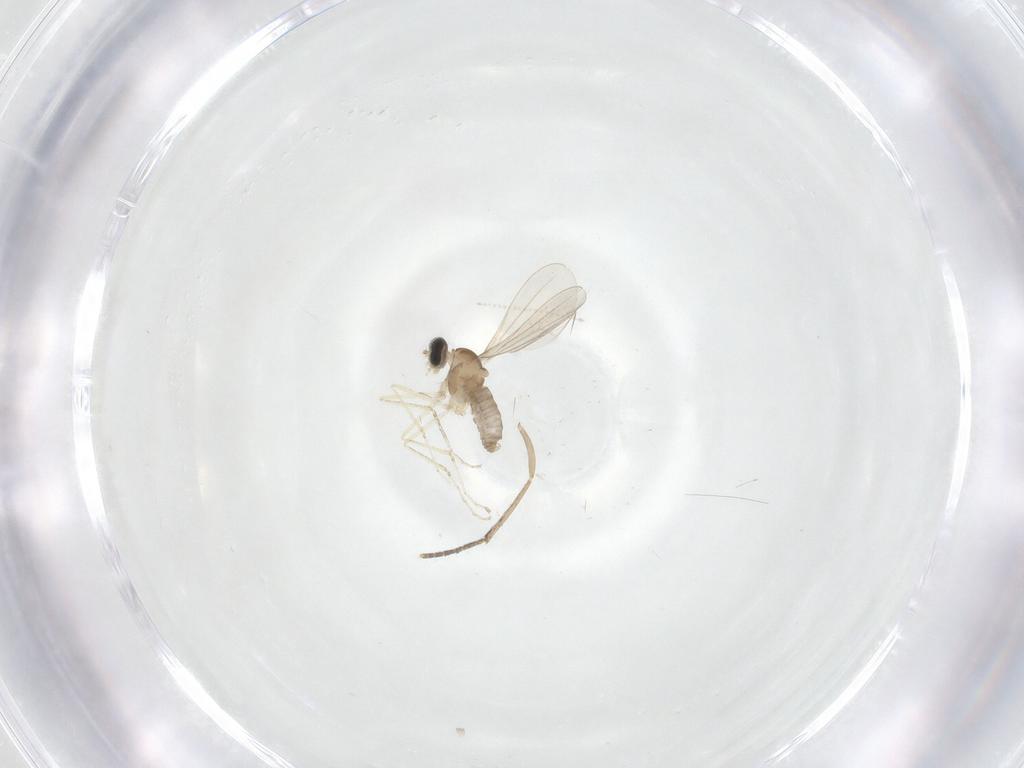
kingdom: Animalia
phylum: Arthropoda
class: Insecta
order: Diptera
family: Cecidomyiidae
